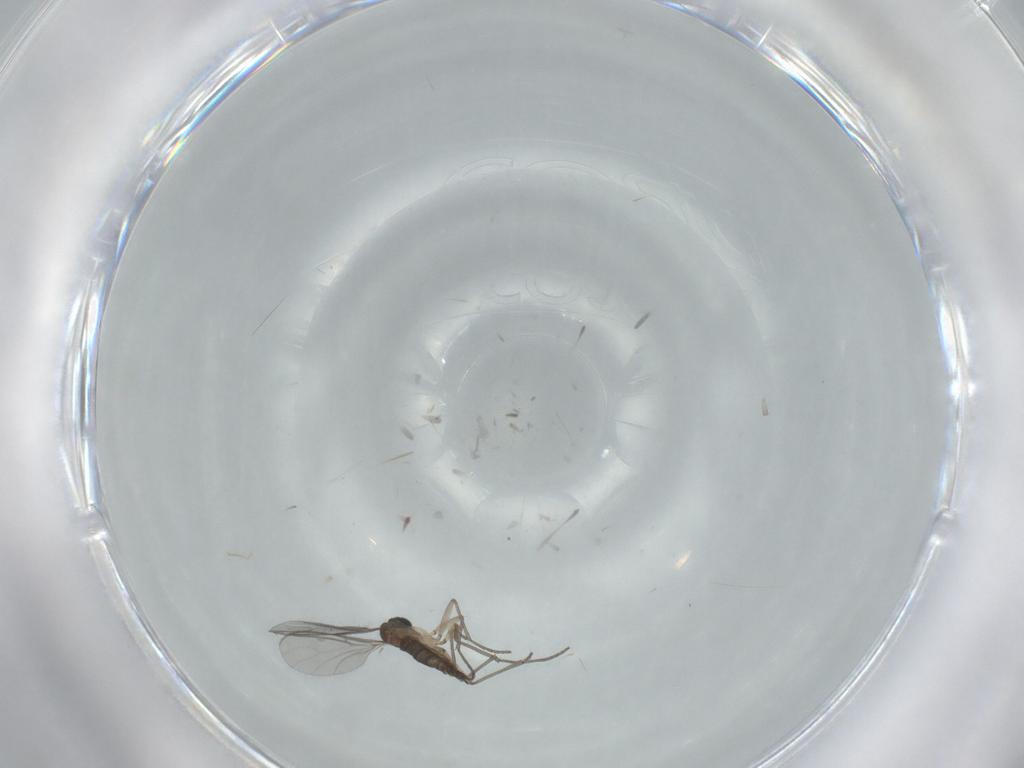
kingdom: Animalia
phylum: Arthropoda
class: Insecta
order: Diptera
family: Sciaridae
